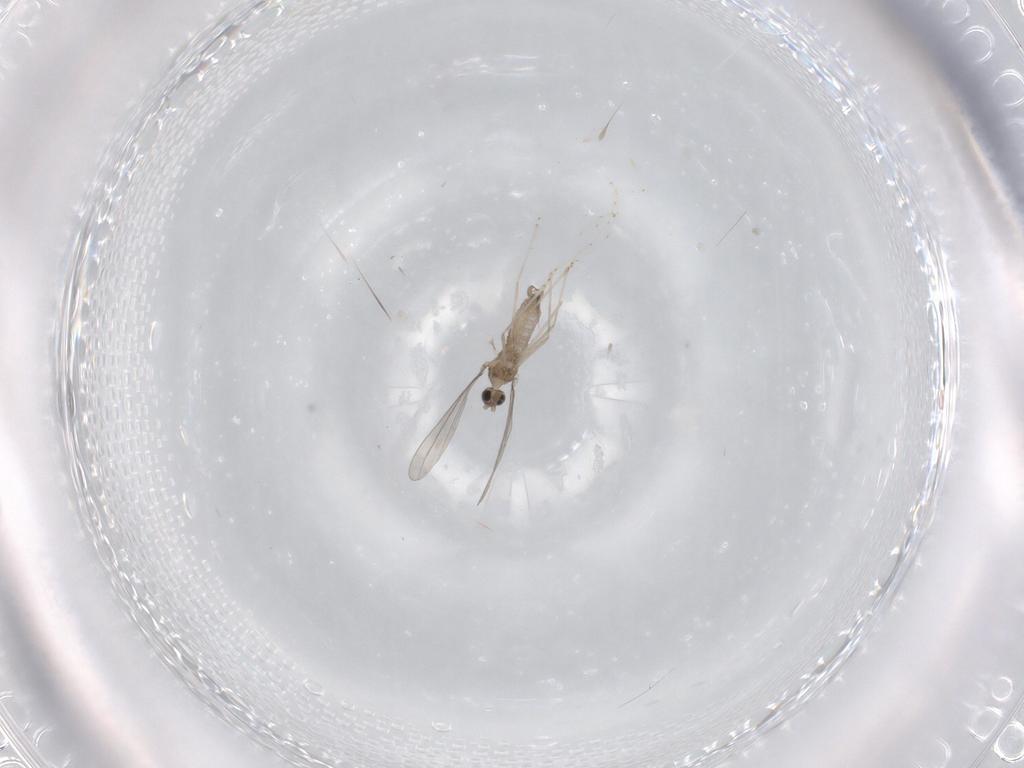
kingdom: Animalia
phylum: Arthropoda
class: Insecta
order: Diptera
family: Cecidomyiidae
